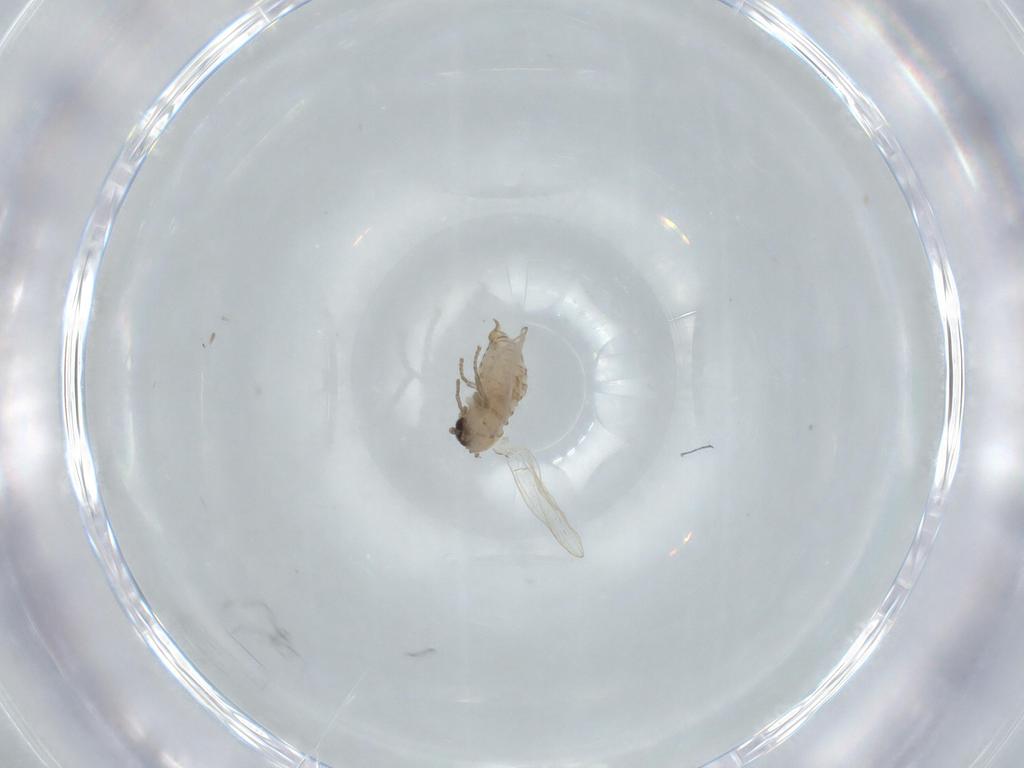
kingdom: Animalia
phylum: Arthropoda
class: Insecta
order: Diptera
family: Psychodidae
